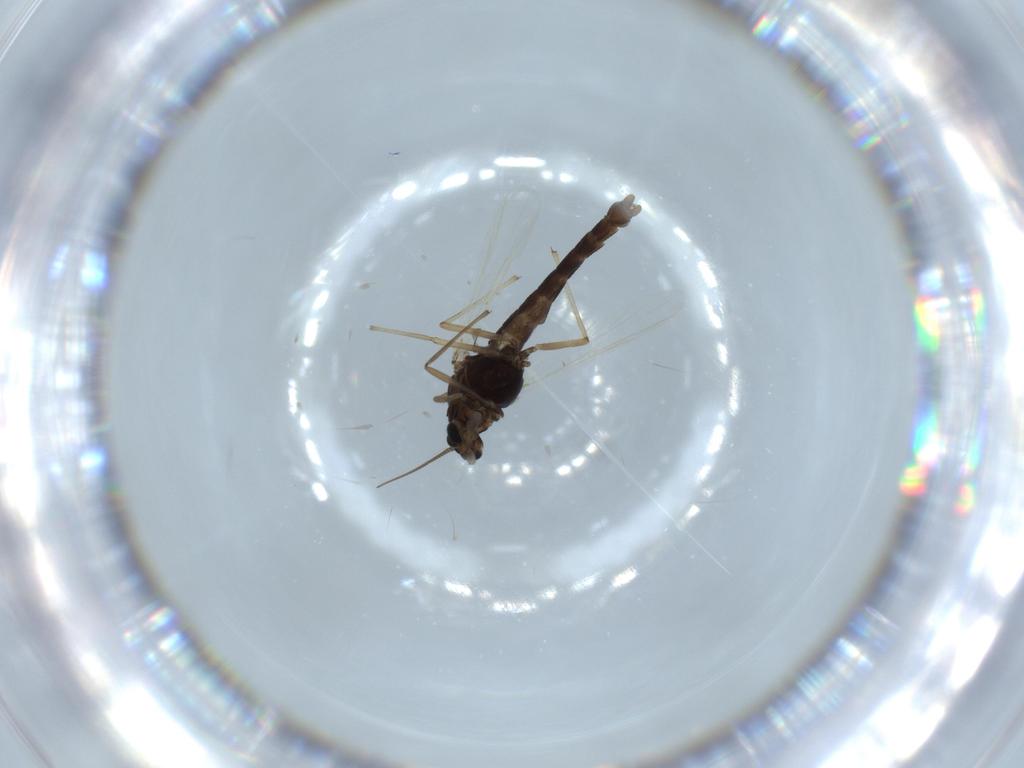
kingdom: Animalia
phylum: Arthropoda
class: Insecta
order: Diptera
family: Chironomidae
